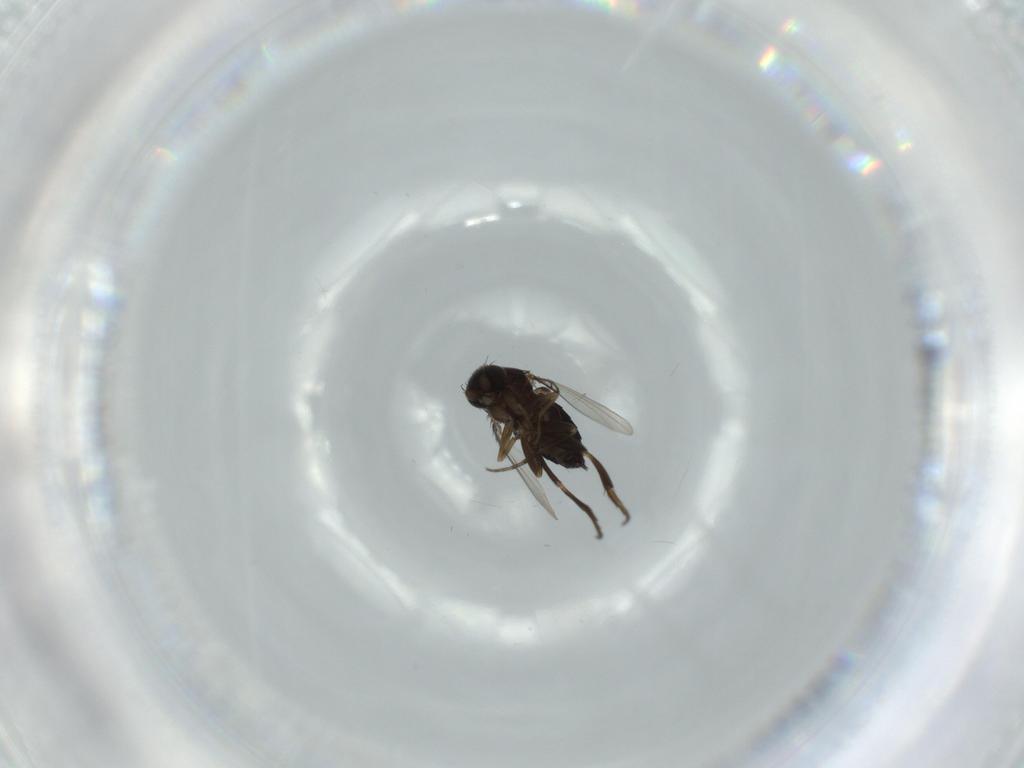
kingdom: Animalia
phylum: Arthropoda
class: Insecta
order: Diptera
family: Phoridae
